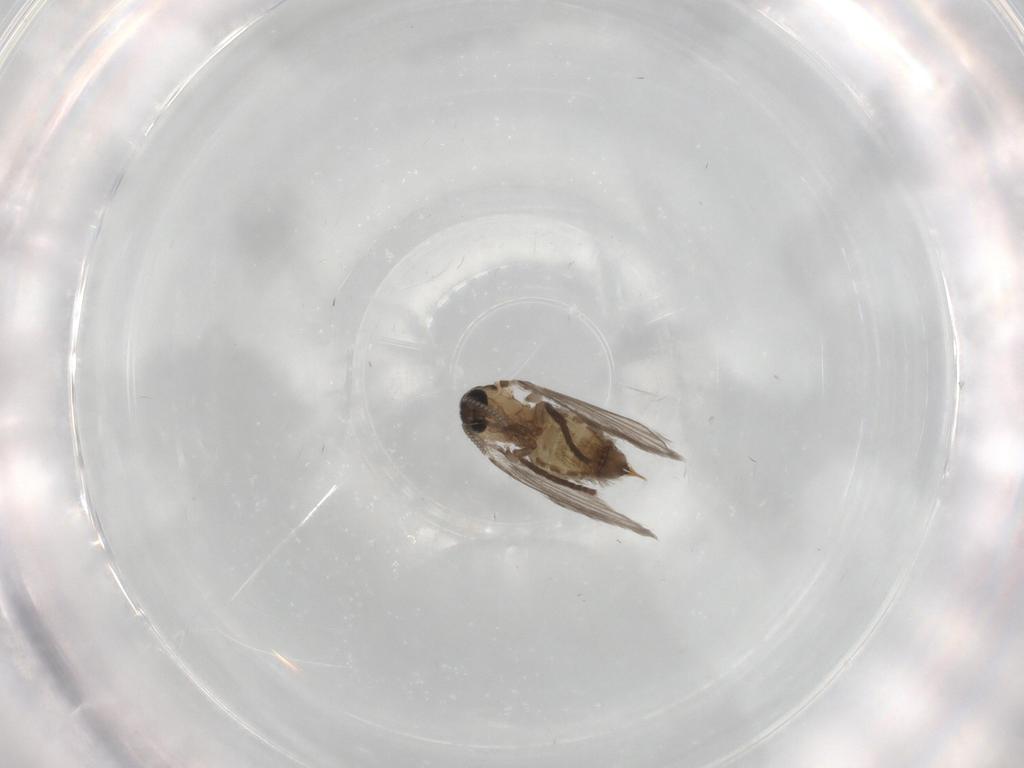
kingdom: Animalia
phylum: Arthropoda
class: Insecta
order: Diptera
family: Psychodidae
